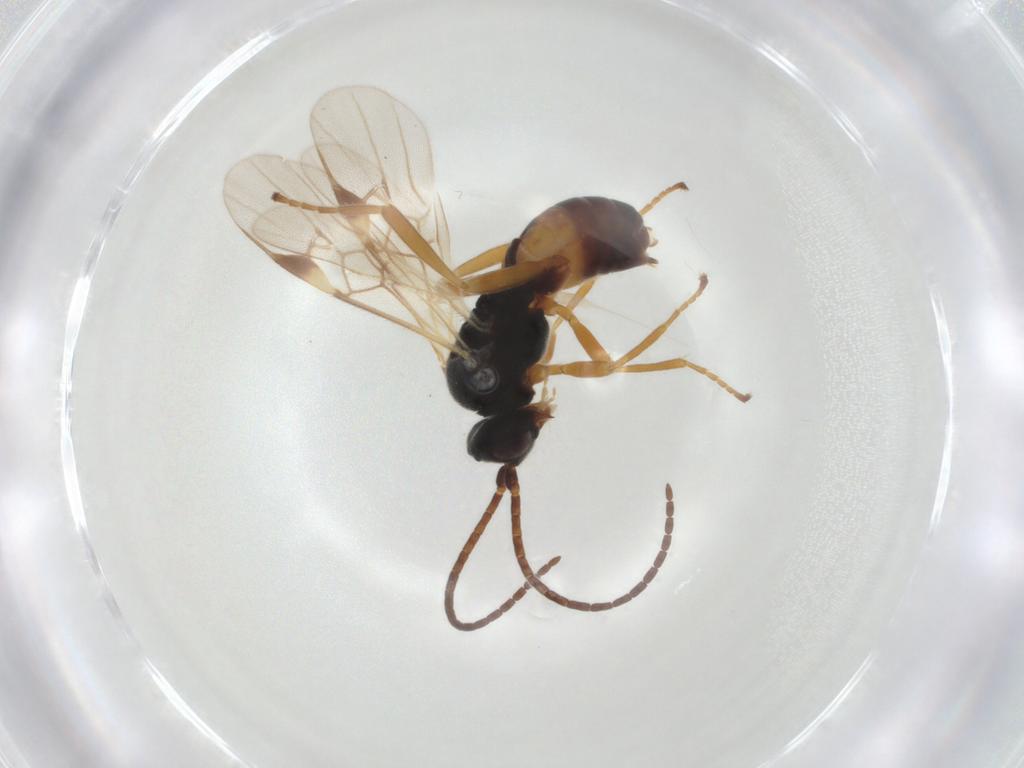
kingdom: Animalia
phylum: Arthropoda
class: Insecta
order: Hymenoptera
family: Braconidae
